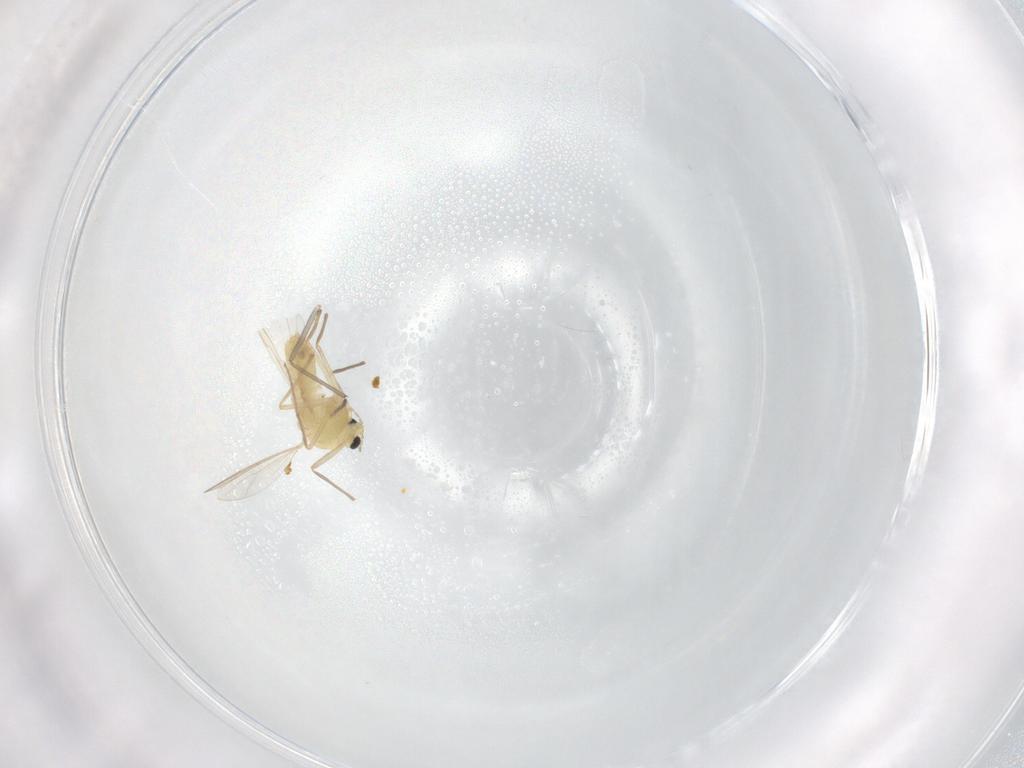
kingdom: Animalia
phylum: Arthropoda
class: Insecta
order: Diptera
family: Chironomidae
